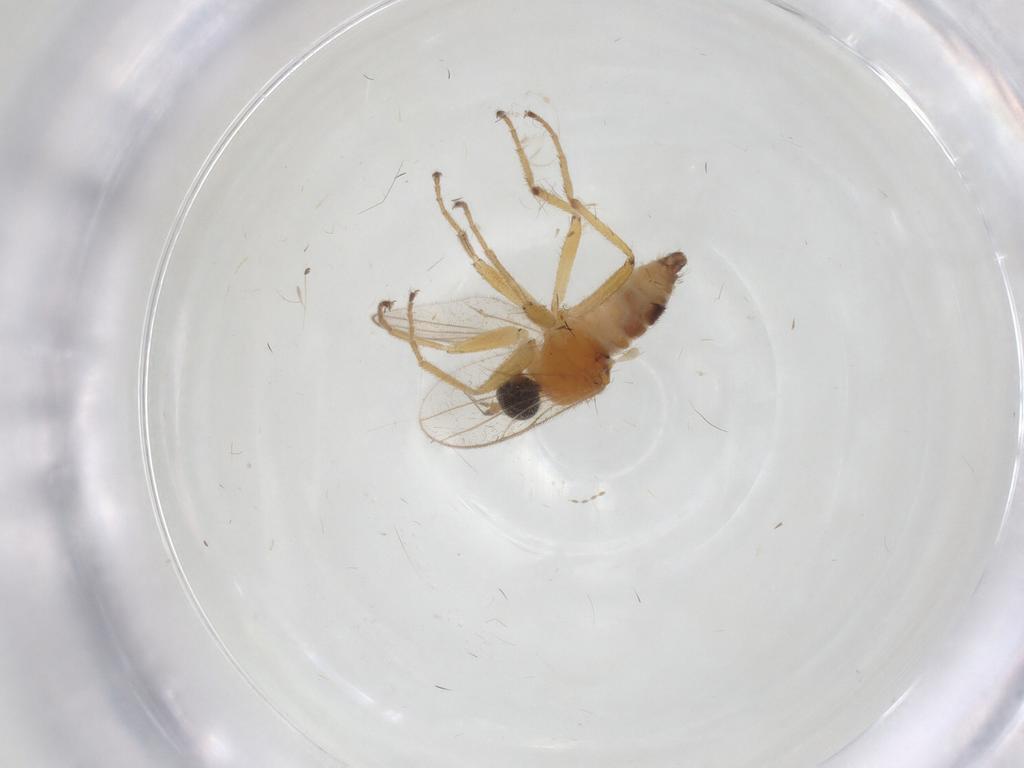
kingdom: Animalia
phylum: Arthropoda
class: Insecta
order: Diptera
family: Hybotidae
